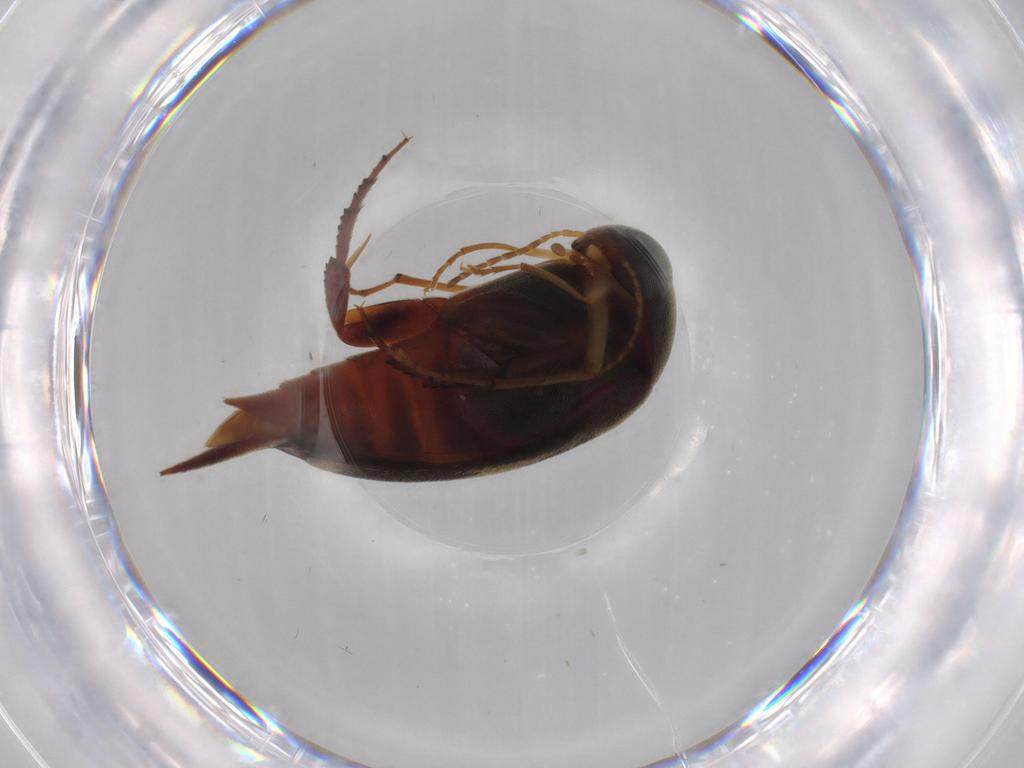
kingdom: Animalia
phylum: Arthropoda
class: Insecta
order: Coleoptera
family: Mordellidae
